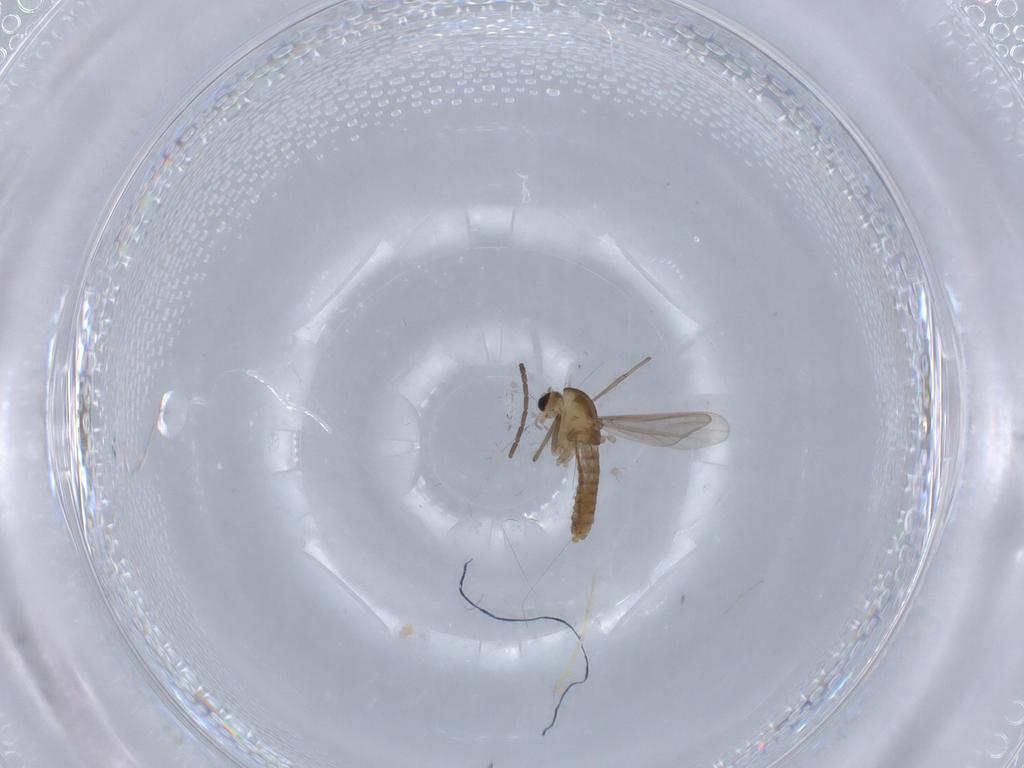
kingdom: Animalia
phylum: Arthropoda
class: Insecta
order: Diptera
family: Chironomidae
